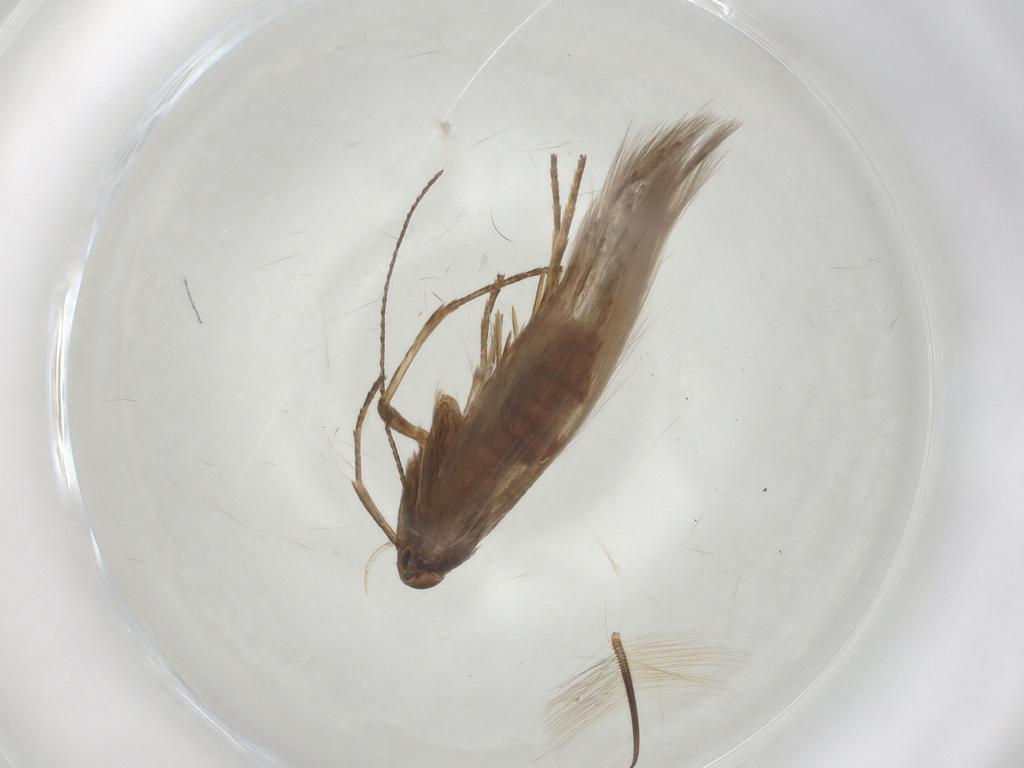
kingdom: Animalia
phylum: Arthropoda
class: Insecta
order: Lepidoptera
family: Erebidae
